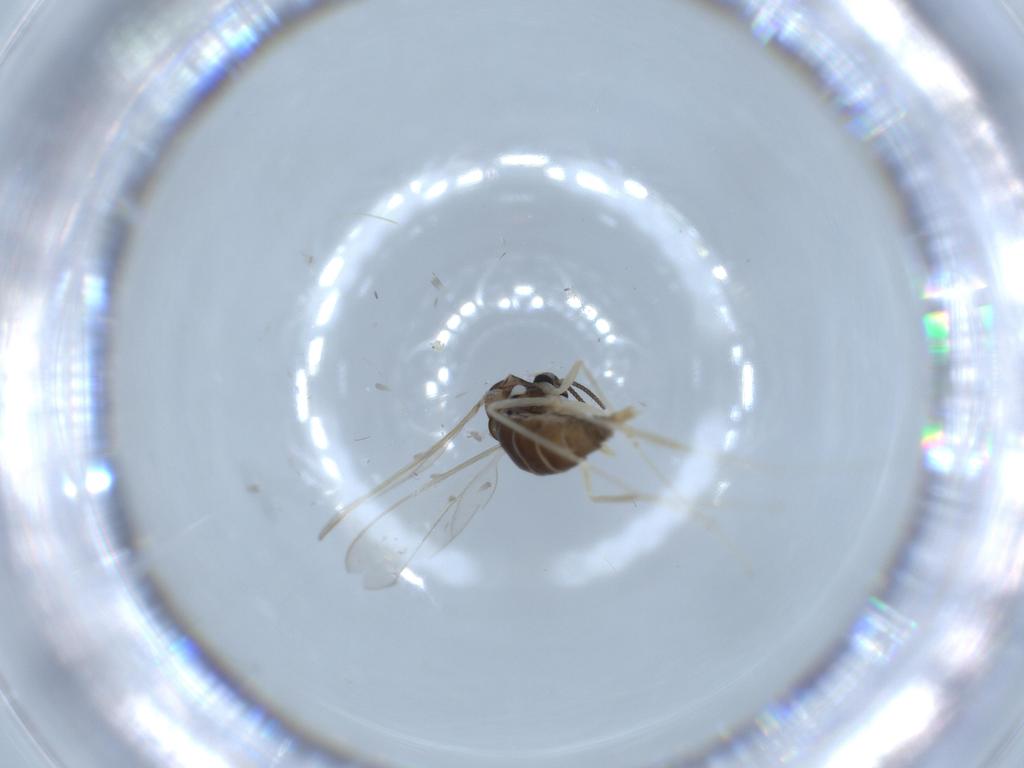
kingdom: Animalia
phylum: Arthropoda
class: Insecta
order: Diptera
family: Cecidomyiidae
